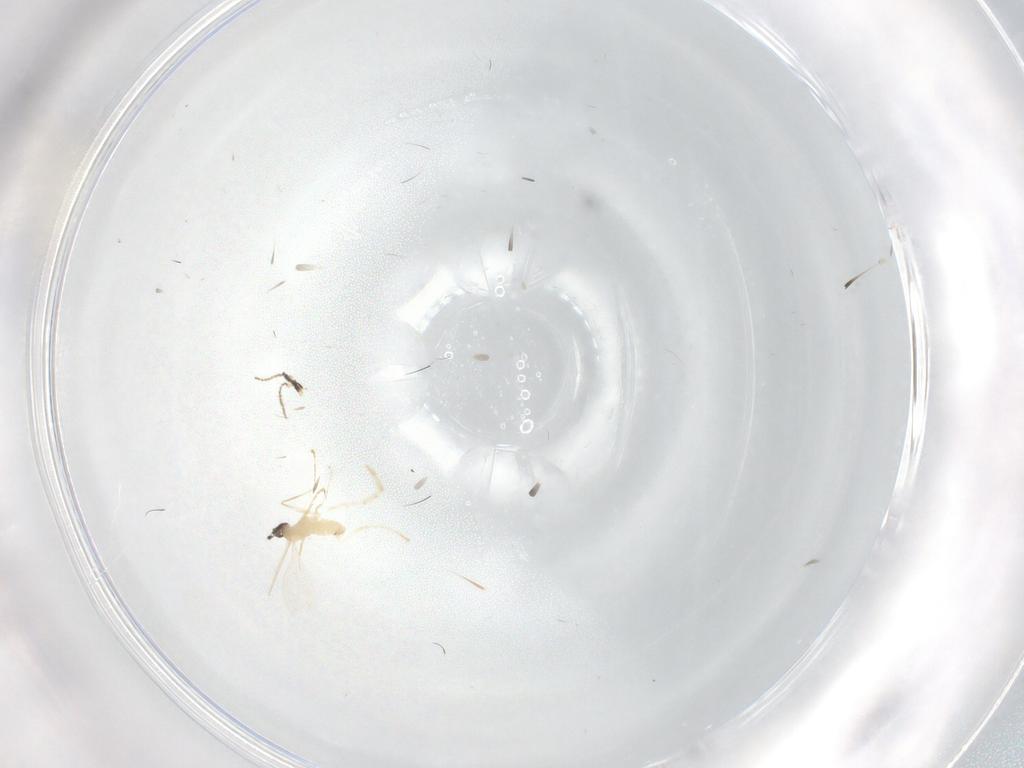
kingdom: Animalia
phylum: Arthropoda
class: Insecta
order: Diptera
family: Cecidomyiidae
